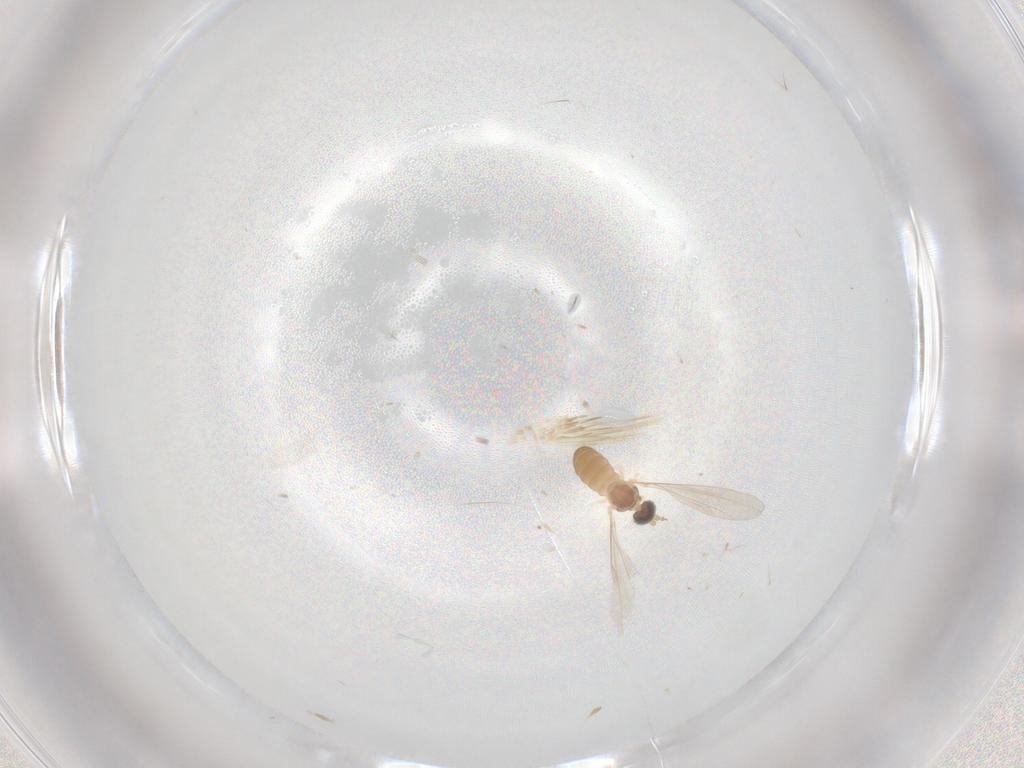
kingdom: Animalia
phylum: Arthropoda
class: Insecta
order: Diptera
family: Cecidomyiidae
